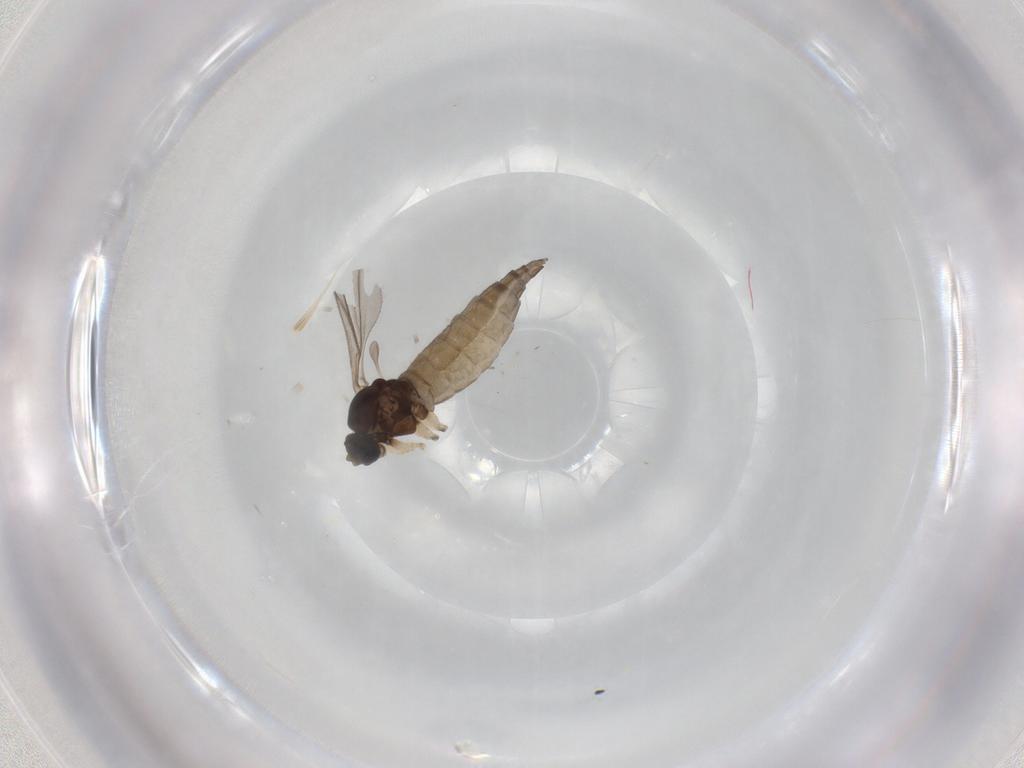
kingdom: Animalia
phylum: Arthropoda
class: Insecta
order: Diptera
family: Sciaridae
